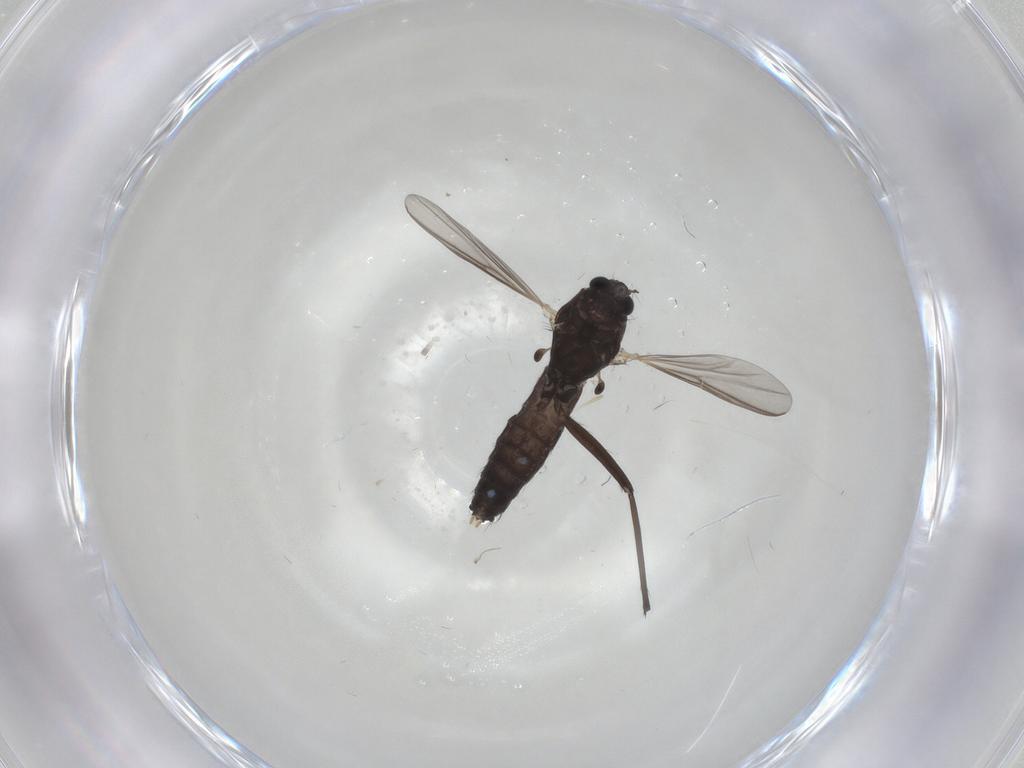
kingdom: Animalia
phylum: Arthropoda
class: Insecta
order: Diptera
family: Chironomidae
